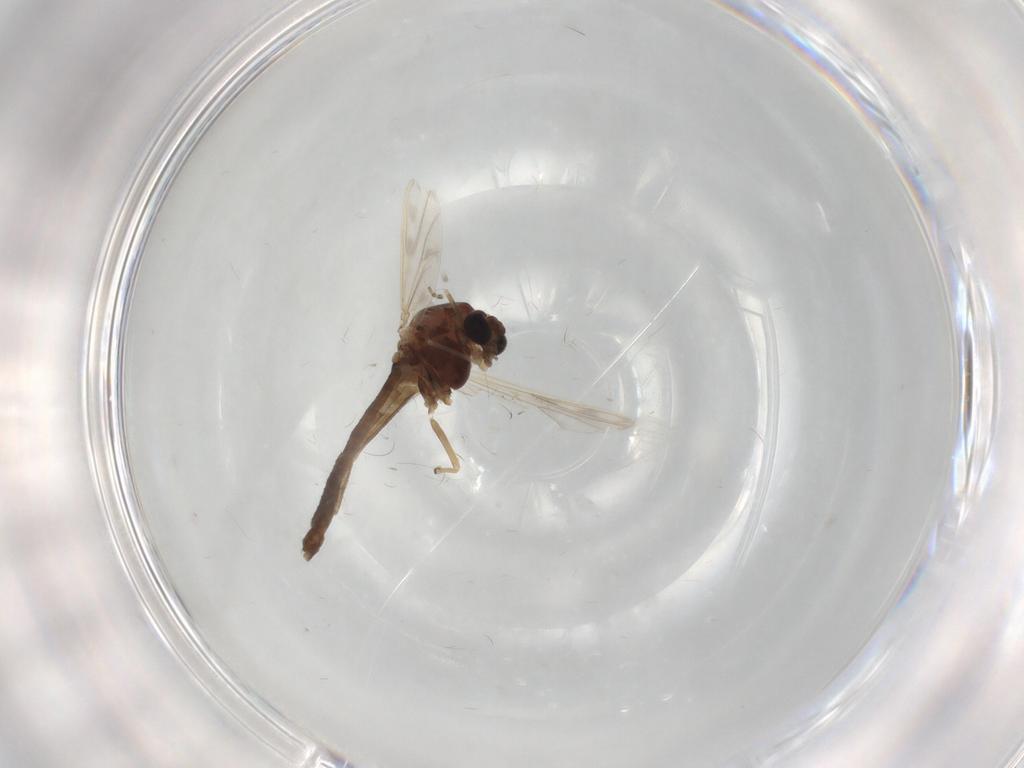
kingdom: Animalia
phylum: Arthropoda
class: Insecta
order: Diptera
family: Chironomidae
